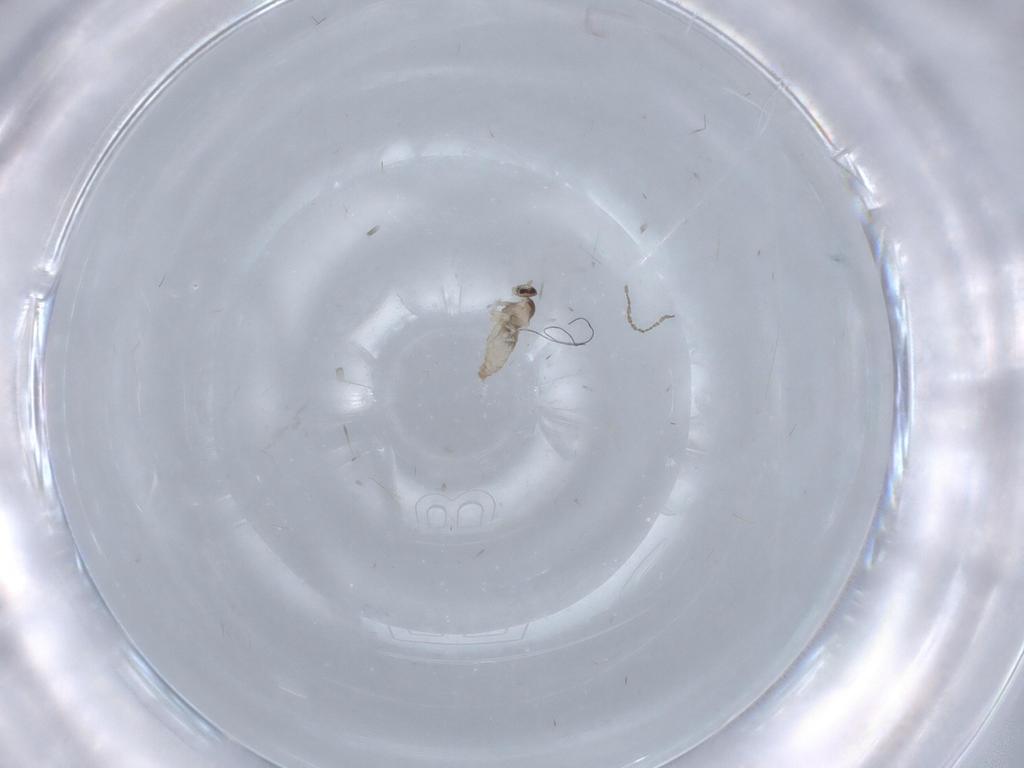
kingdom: Animalia
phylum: Arthropoda
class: Insecta
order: Diptera
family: Cecidomyiidae
